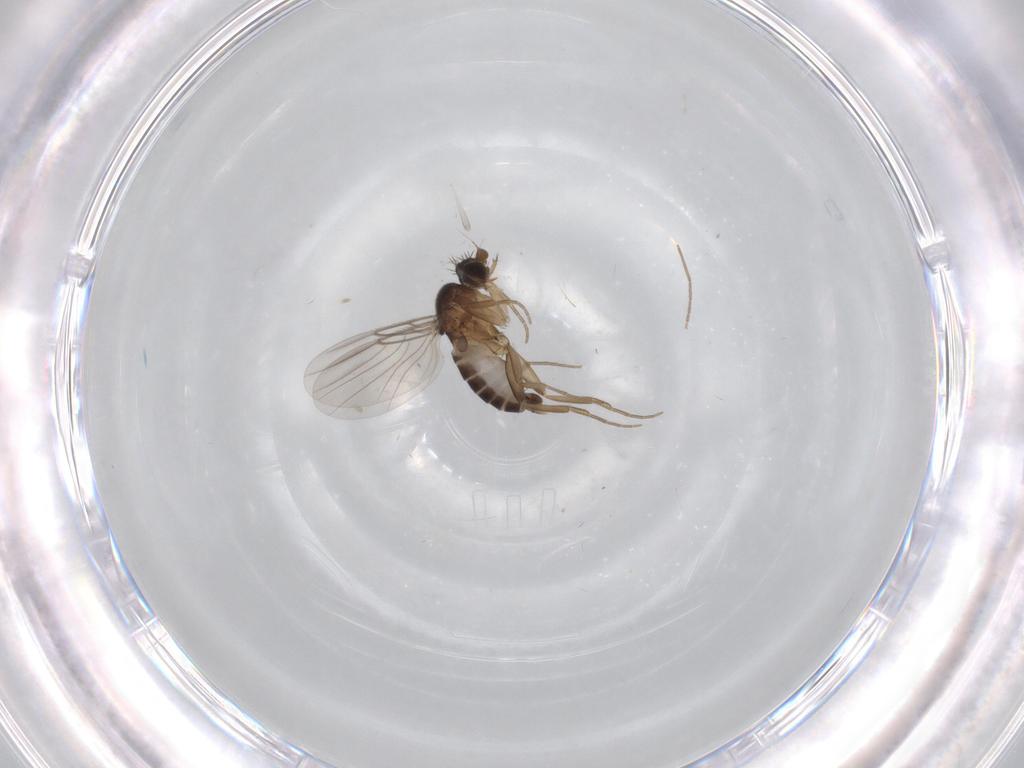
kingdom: Animalia
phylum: Arthropoda
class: Insecta
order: Diptera
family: Phoridae
